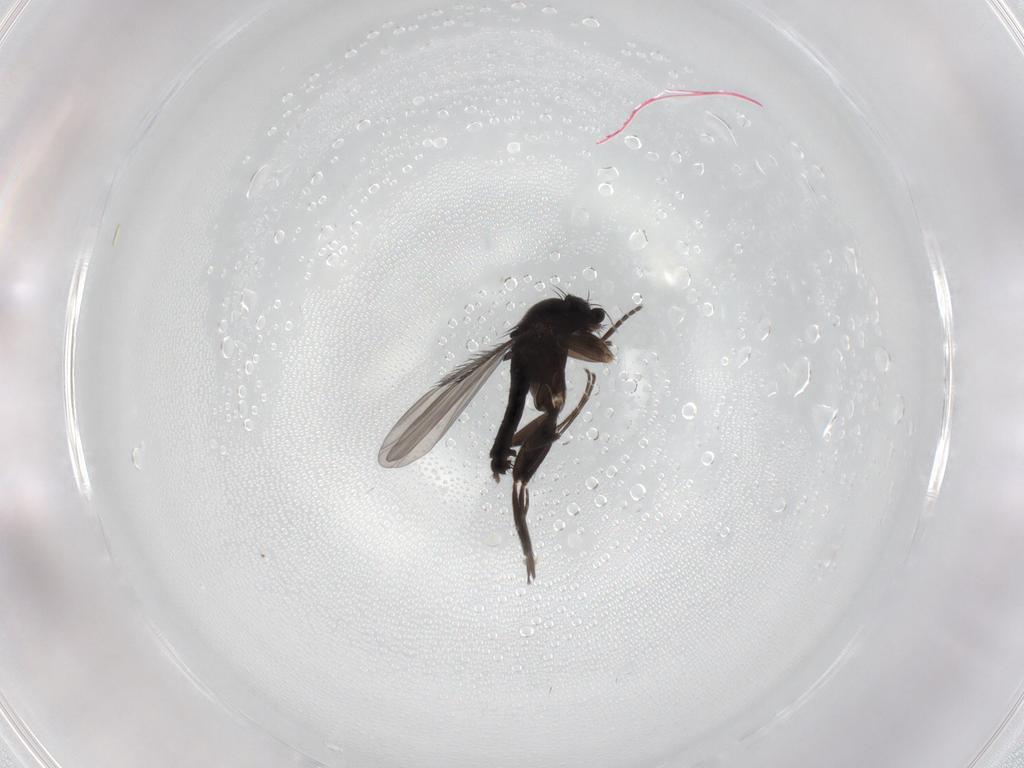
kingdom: Animalia
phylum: Arthropoda
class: Insecta
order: Diptera
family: Phoridae
